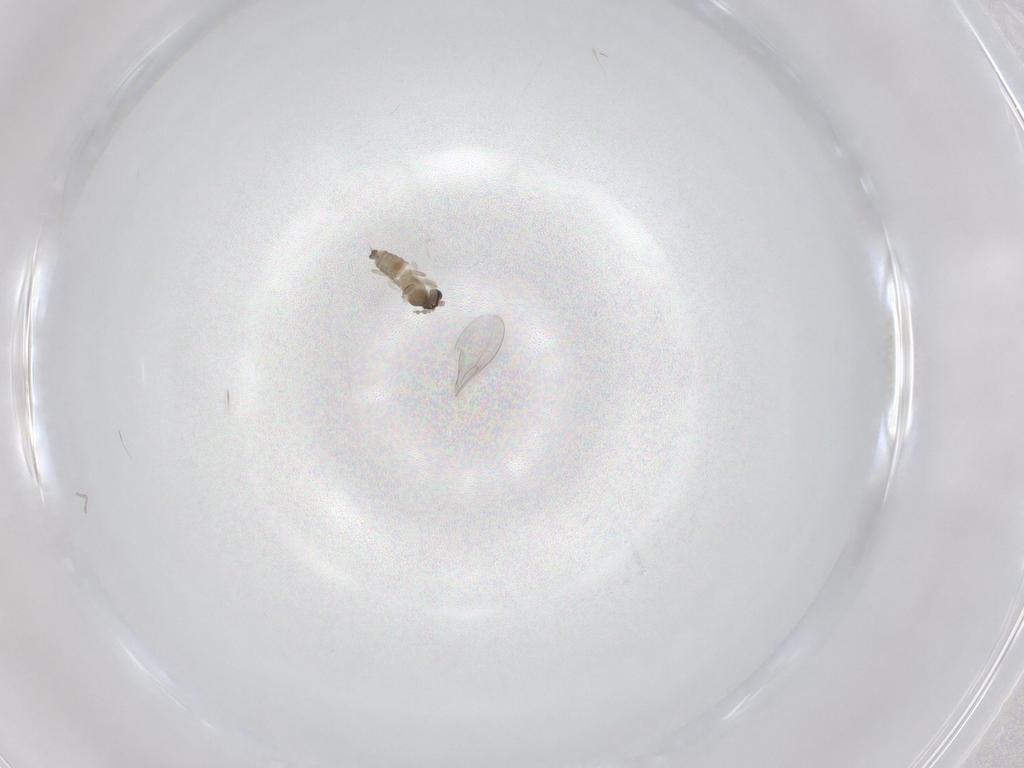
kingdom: Animalia
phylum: Arthropoda
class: Insecta
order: Diptera
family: Cecidomyiidae
